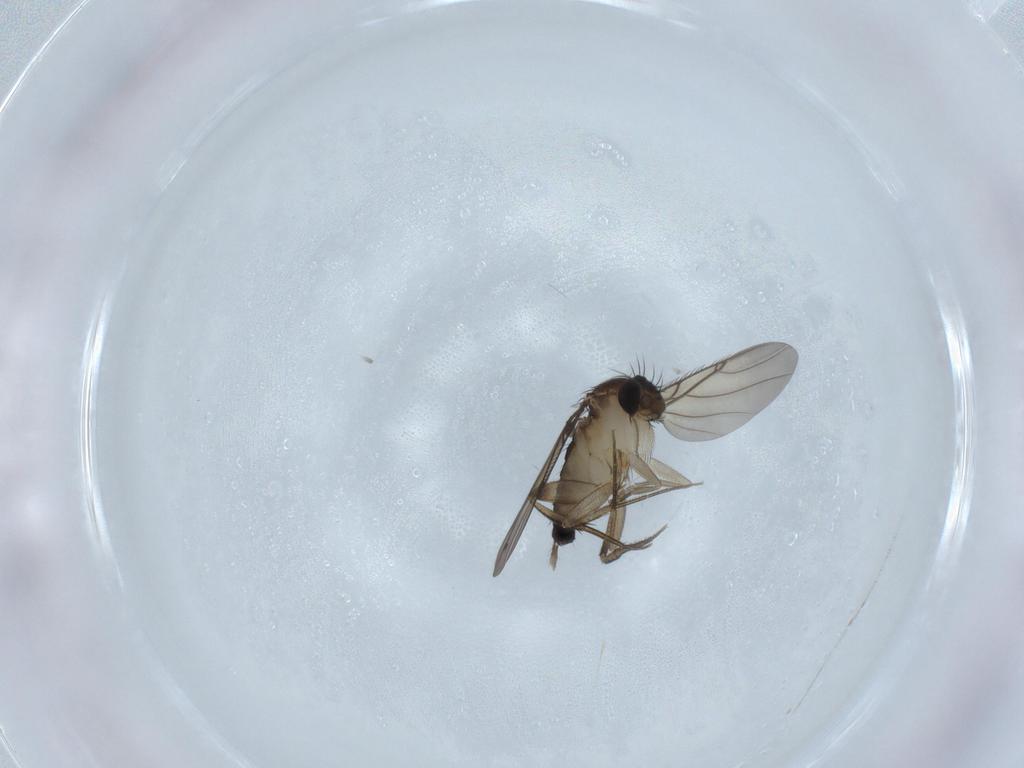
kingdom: Animalia
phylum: Arthropoda
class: Insecta
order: Diptera
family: Phoridae
